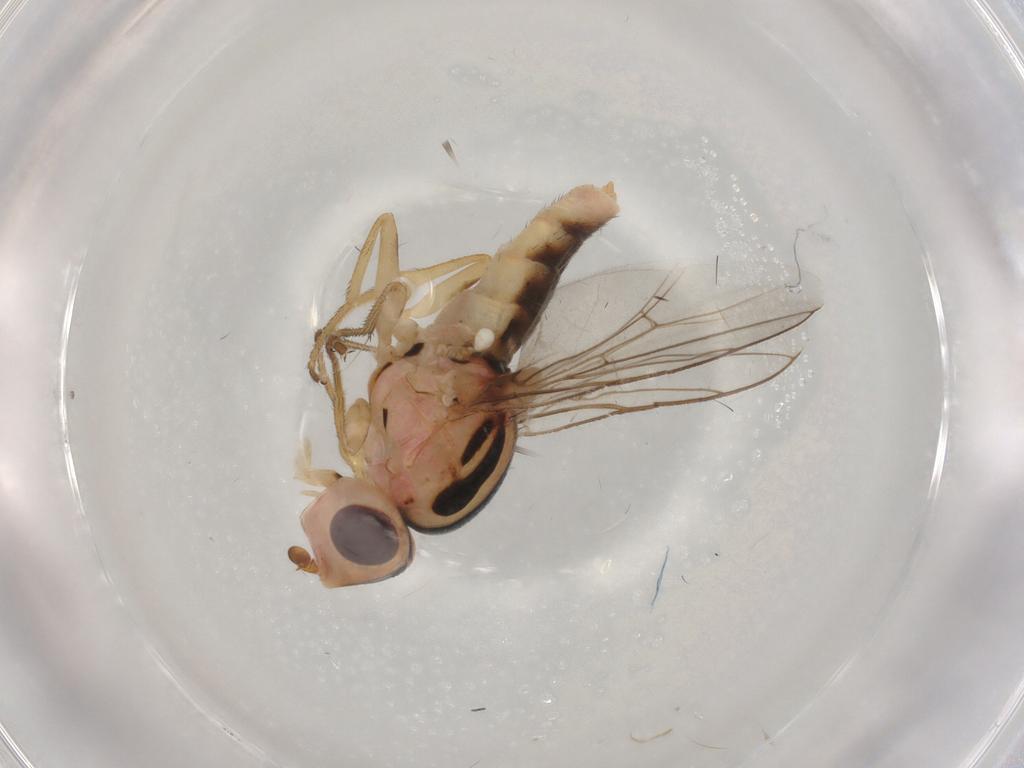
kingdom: Animalia
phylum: Arthropoda
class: Insecta
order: Diptera
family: Chloropidae
